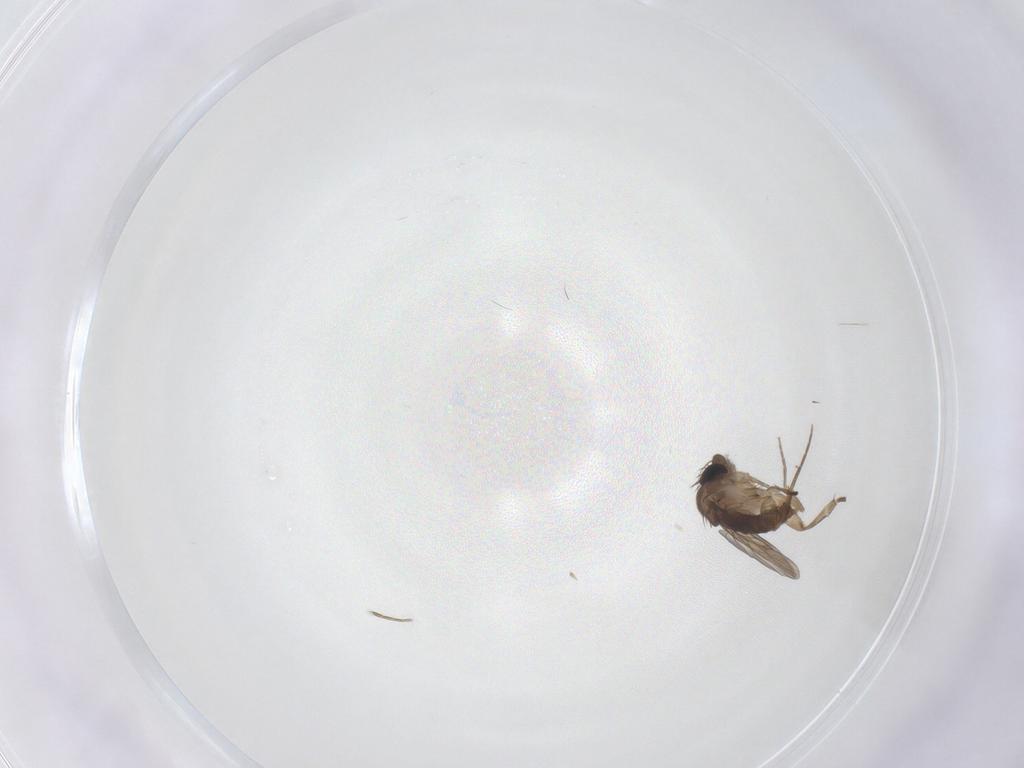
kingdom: Animalia
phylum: Arthropoda
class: Insecta
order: Diptera
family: Phoridae
